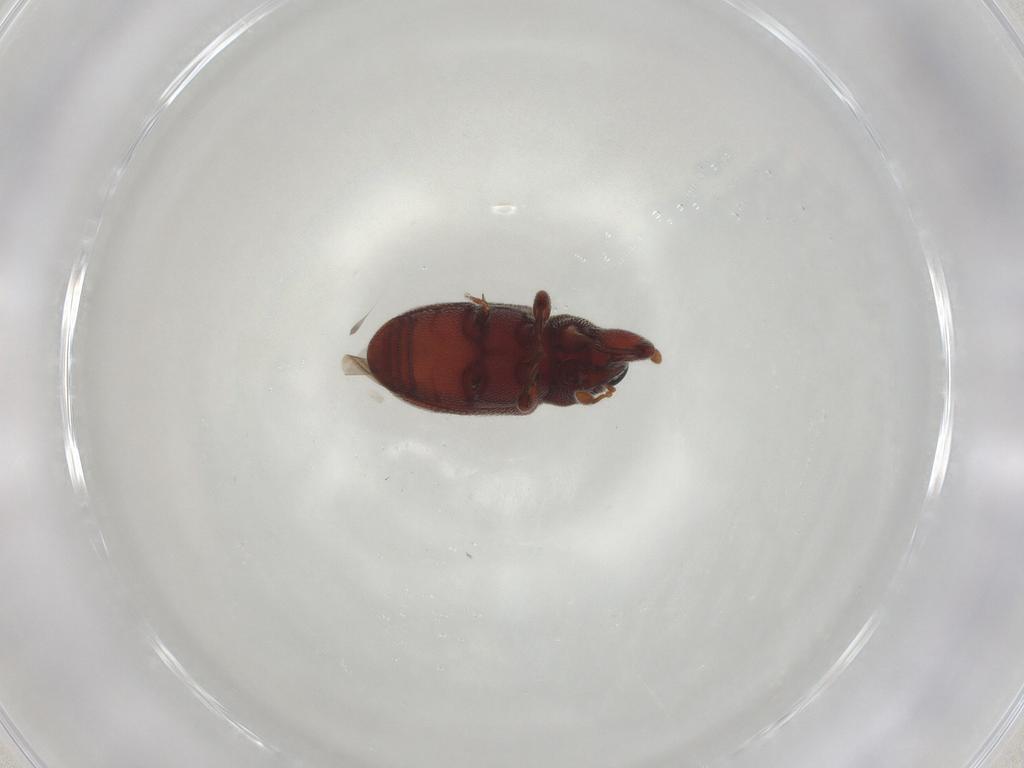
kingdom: Animalia
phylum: Arthropoda
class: Insecta
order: Coleoptera
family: Curculionidae
